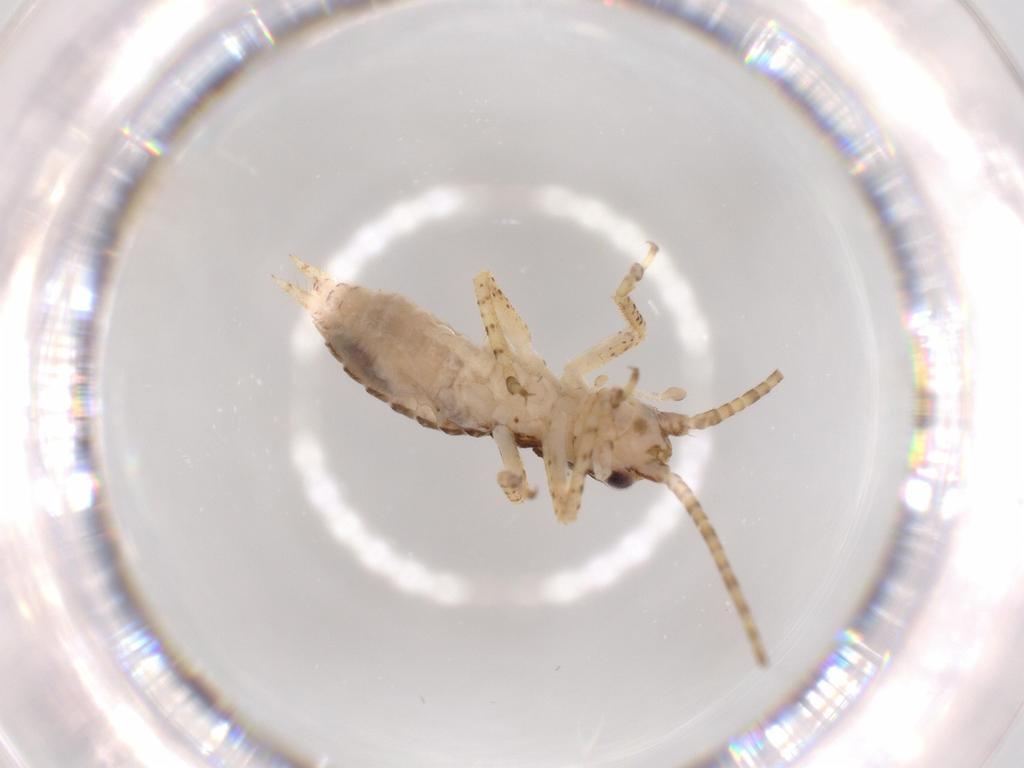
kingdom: Animalia
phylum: Arthropoda
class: Insecta
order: Orthoptera
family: Gryllidae
